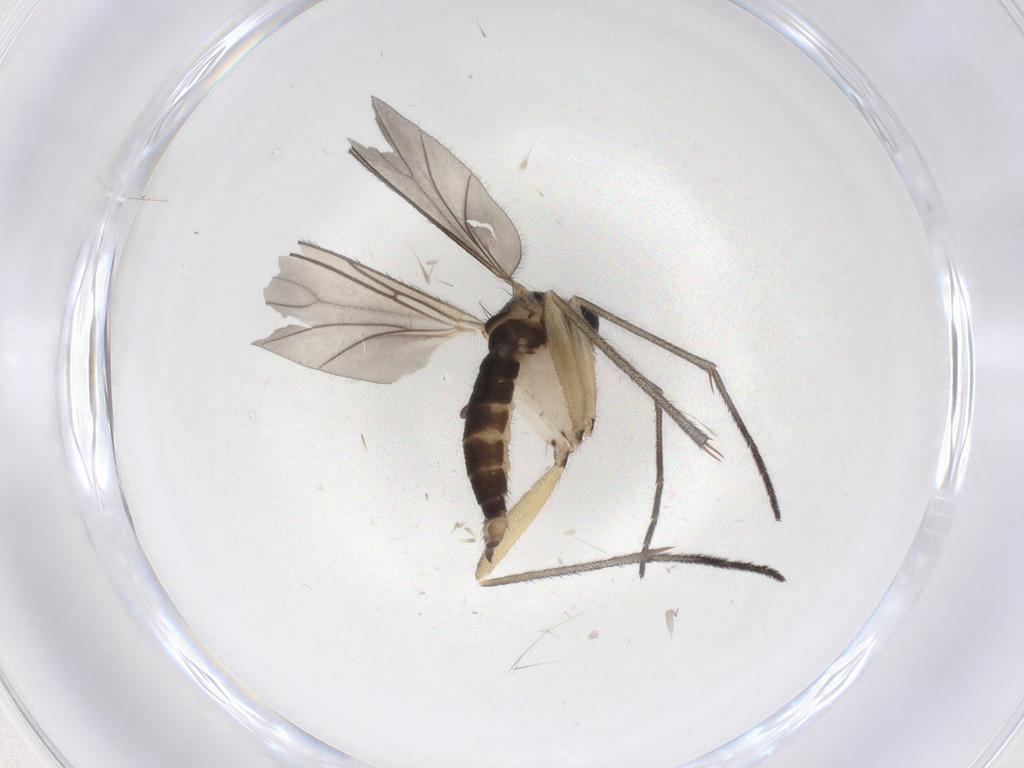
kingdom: Animalia
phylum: Arthropoda
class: Insecta
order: Diptera
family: Sciaridae
